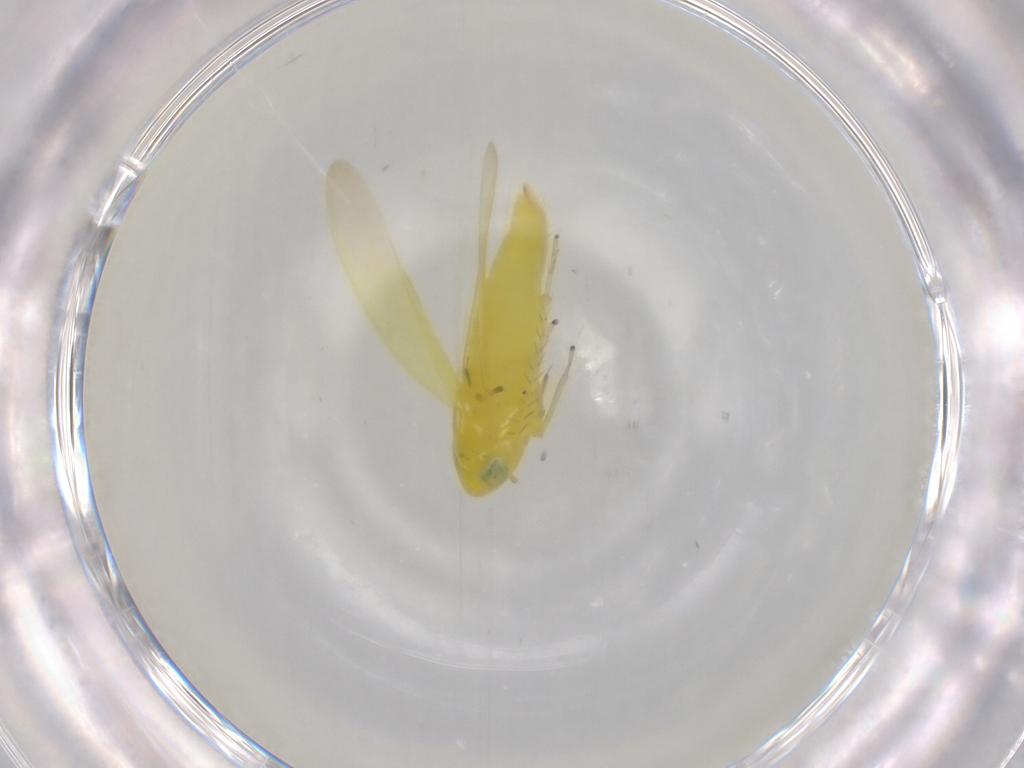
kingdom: Animalia
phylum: Arthropoda
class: Insecta
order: Hemiptera
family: Cicadellidae
